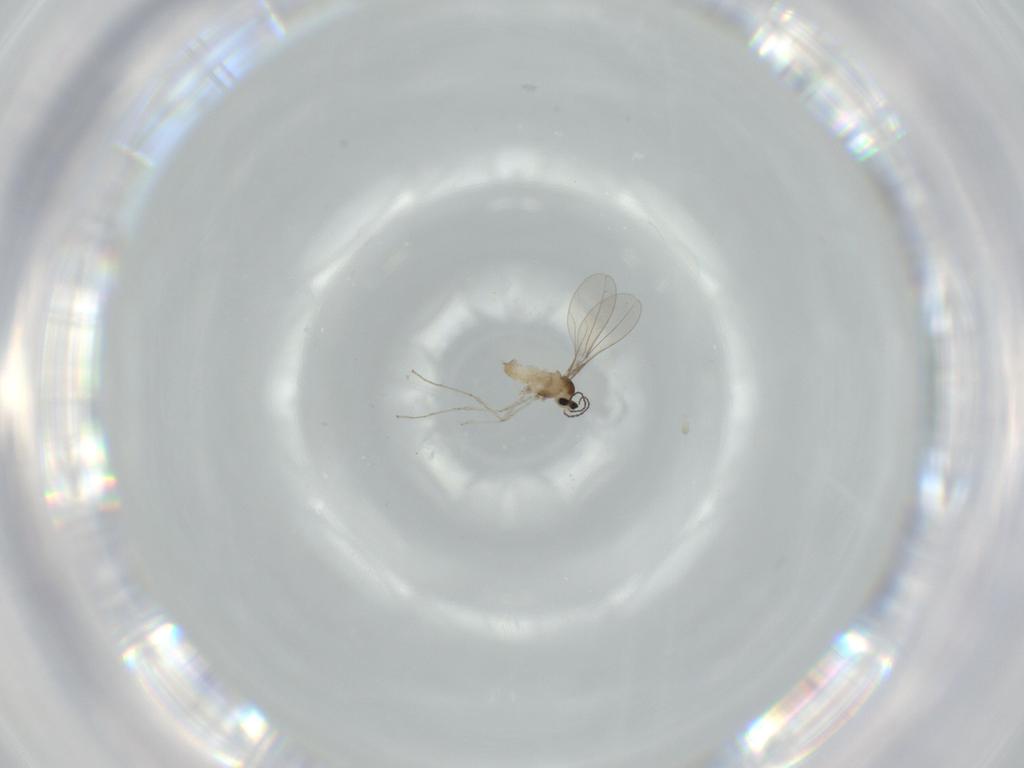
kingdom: Animalia
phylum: Arthropoda
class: Insecta
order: Diptera
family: Cecidomyiidae
